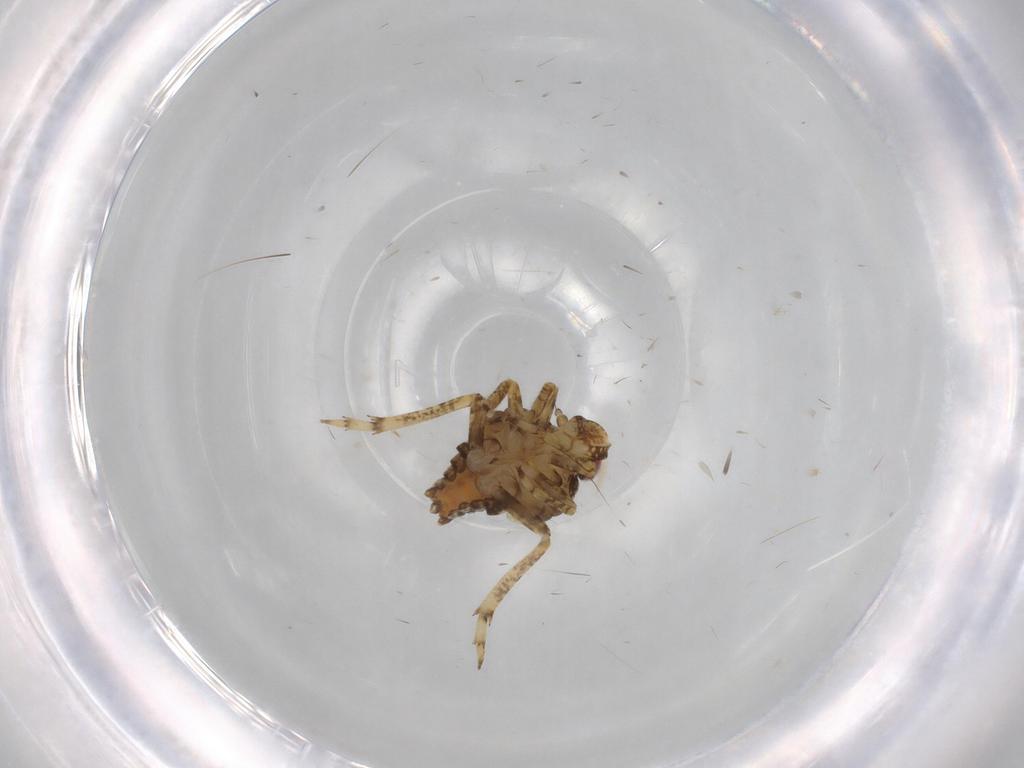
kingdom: Animalia
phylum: Arthropoda
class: Insecta
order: Hemiptera
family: Issidae
